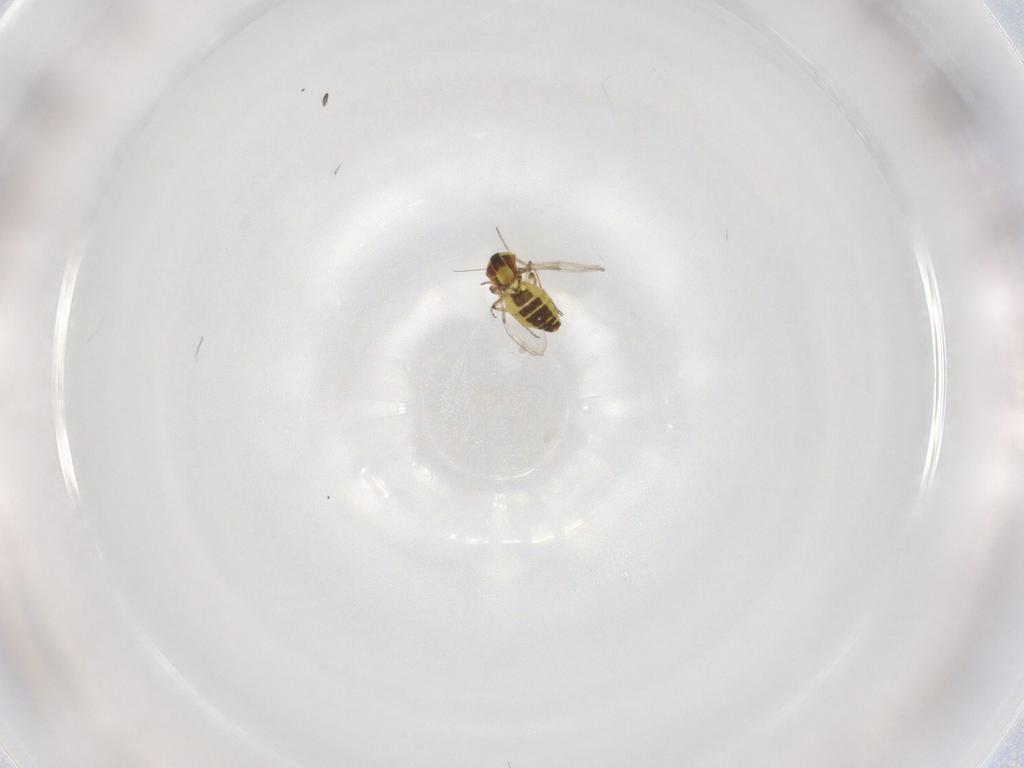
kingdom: Animalia
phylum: Arthropoda
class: Insecta
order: Diptera
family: Ceratopogonidae
